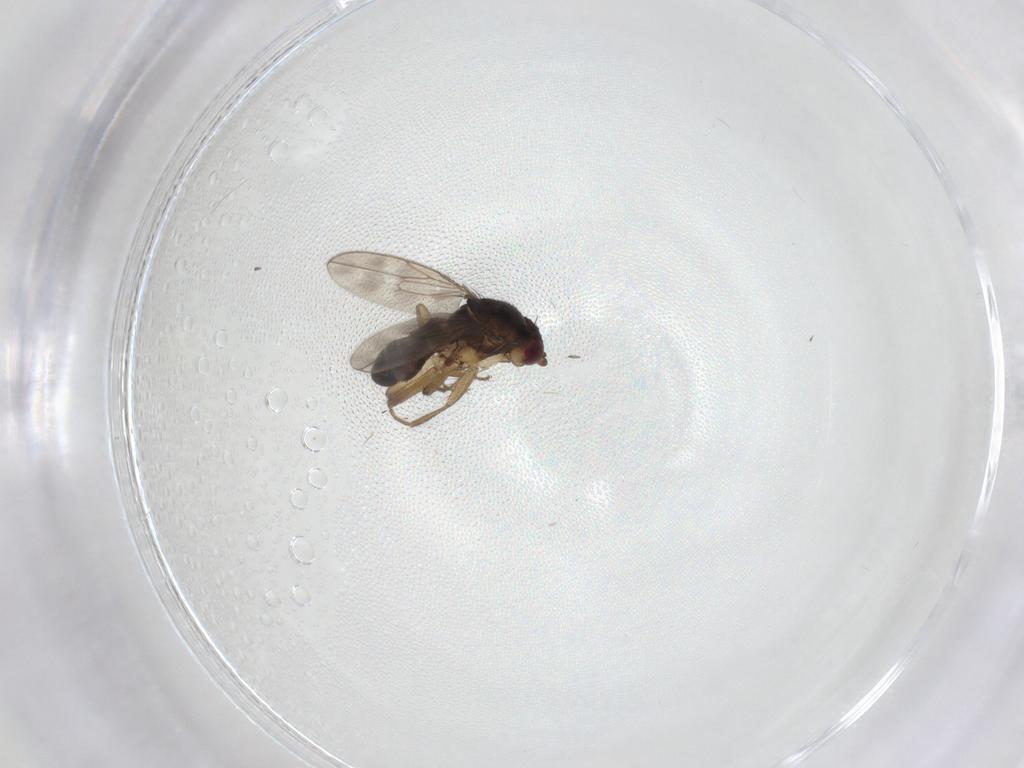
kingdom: Animalia
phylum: Arthropoda
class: Insecta
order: Diptera
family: Sphaeroceridae
